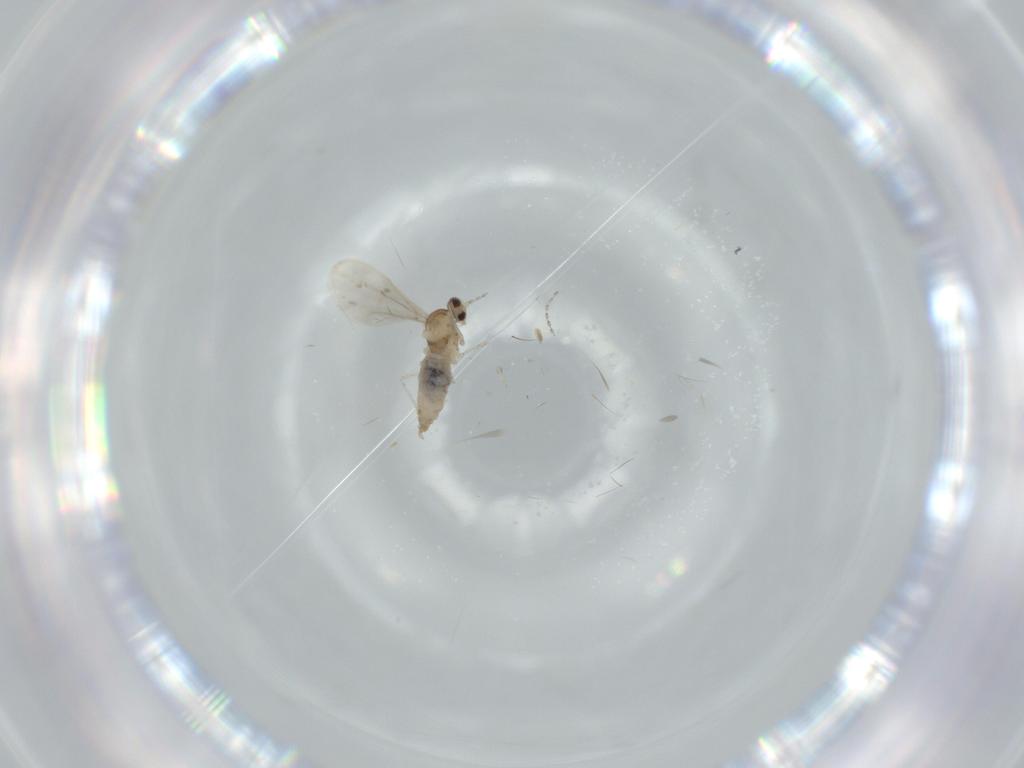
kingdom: Animalia
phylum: Arthropoda
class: Insecta
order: Diptera
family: Cecidomyiidae
